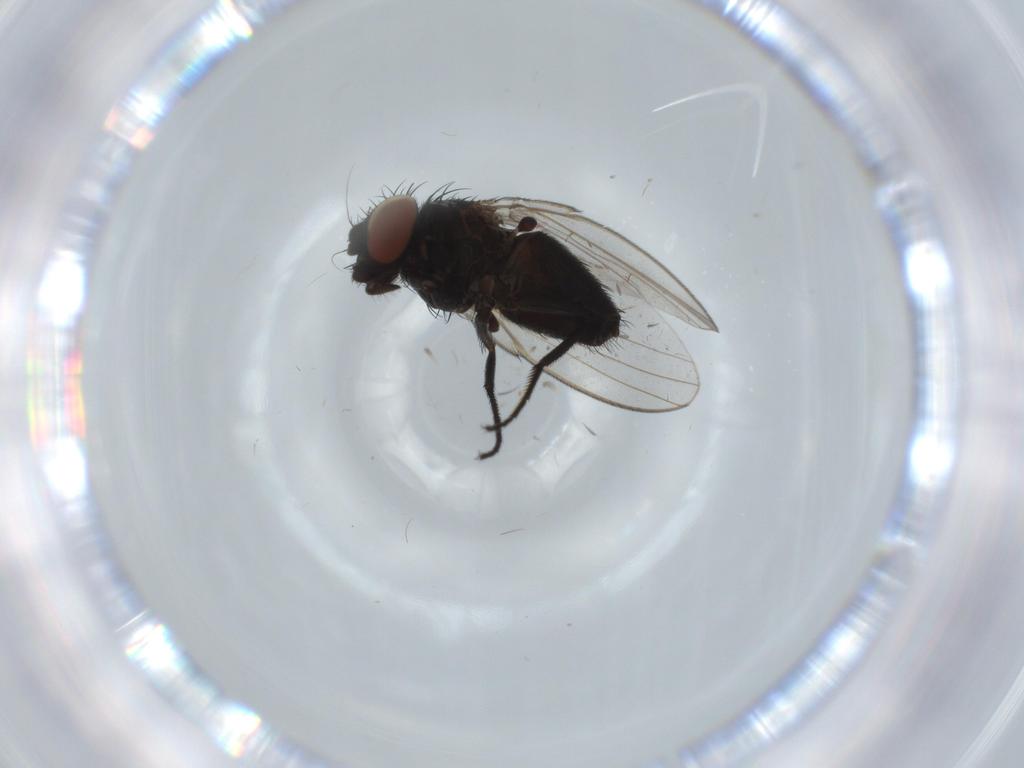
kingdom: Animalia
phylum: Arthropoda
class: Insecta
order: Diptera
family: Milichiidae
